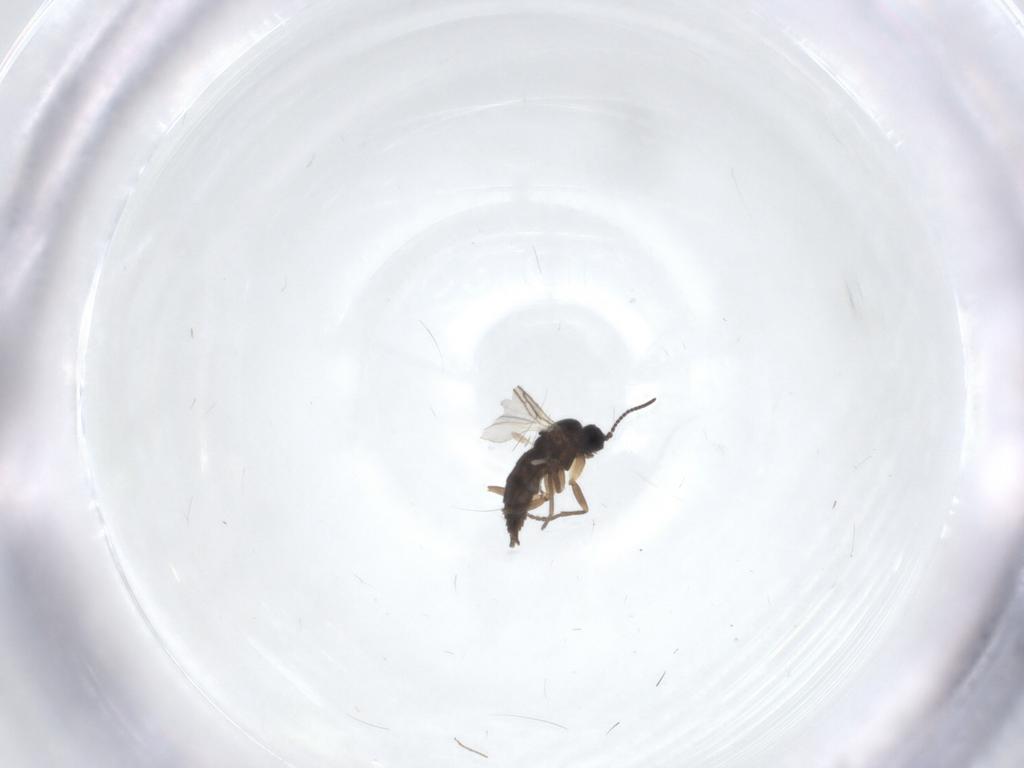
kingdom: Animalia
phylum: Arthropoda
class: Insecta
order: Diptera
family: Sciaridae
